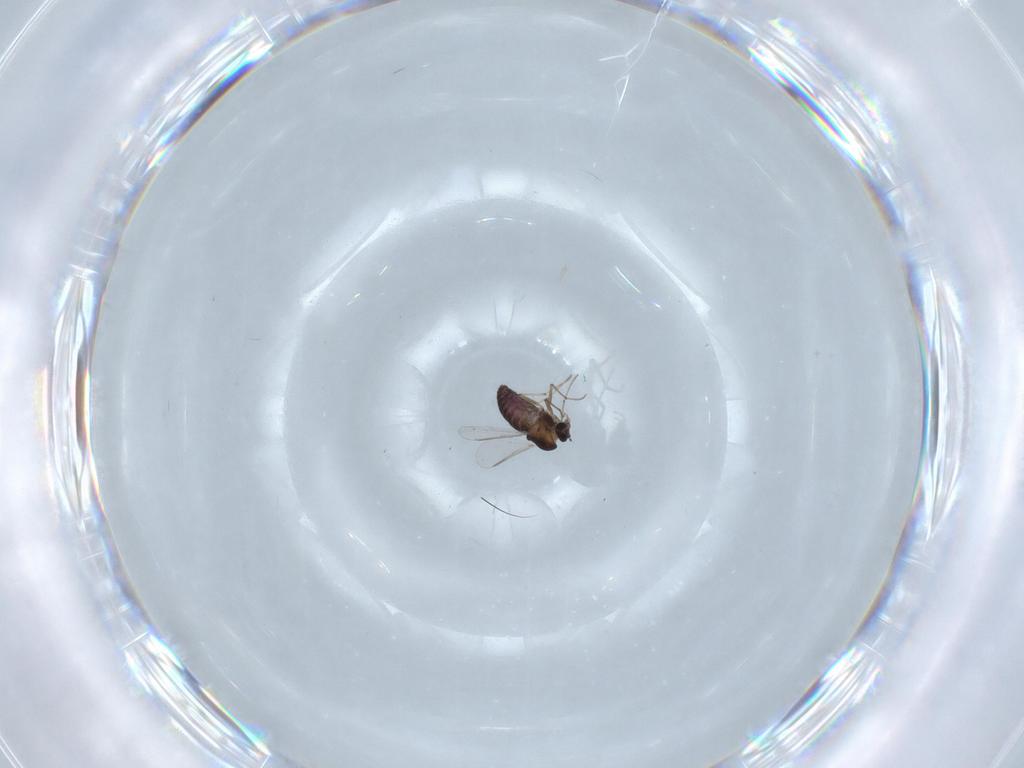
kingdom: Animalia
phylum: Arthropoda
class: Insecta
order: Diptera
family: Chironomidae
